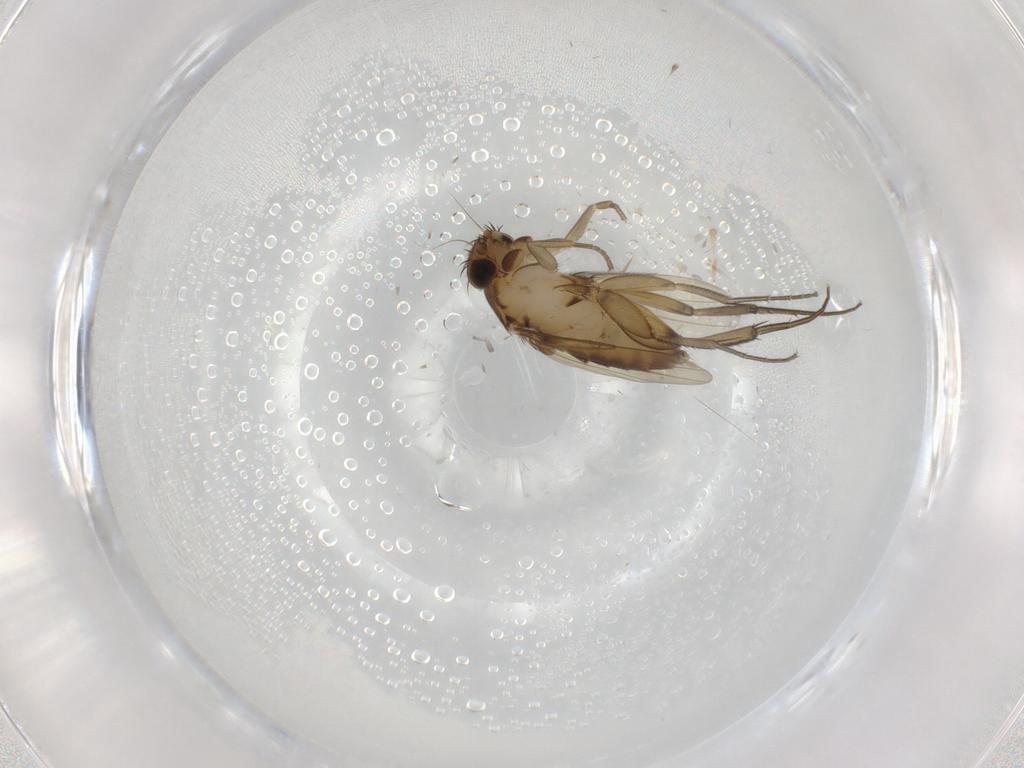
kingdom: Animalia
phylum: Arthropoda
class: Insecta
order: Diptera
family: Phoridae
